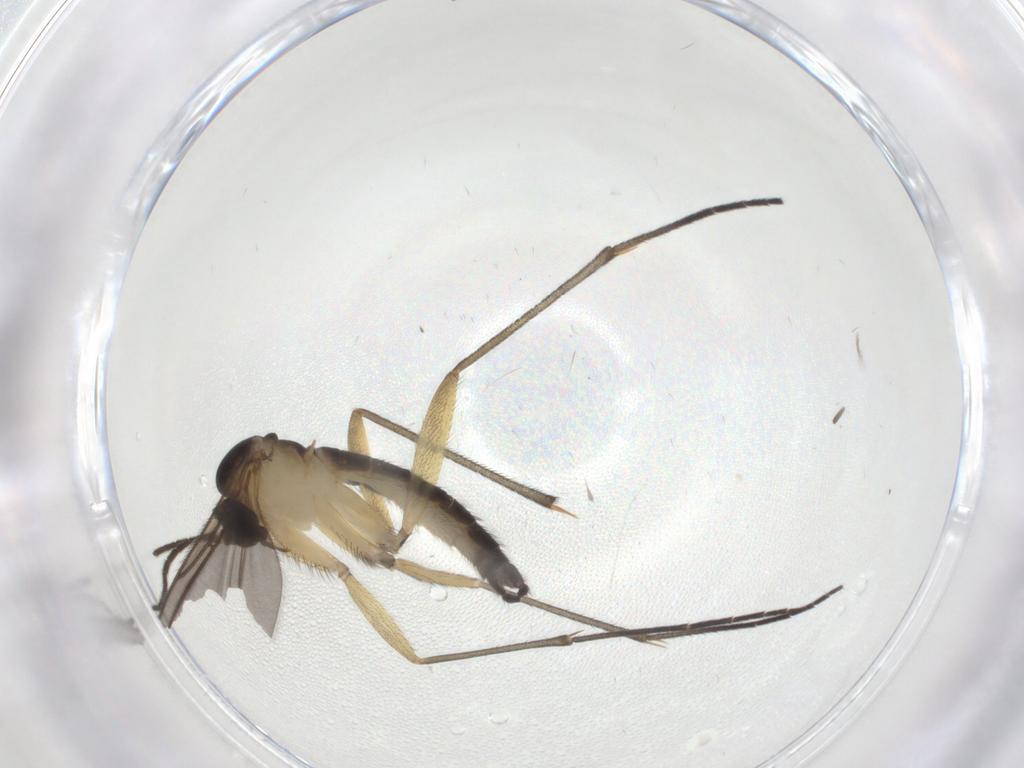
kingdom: Animalia
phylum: Arthropoda
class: Insecta
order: Diptera
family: Sciaridae
